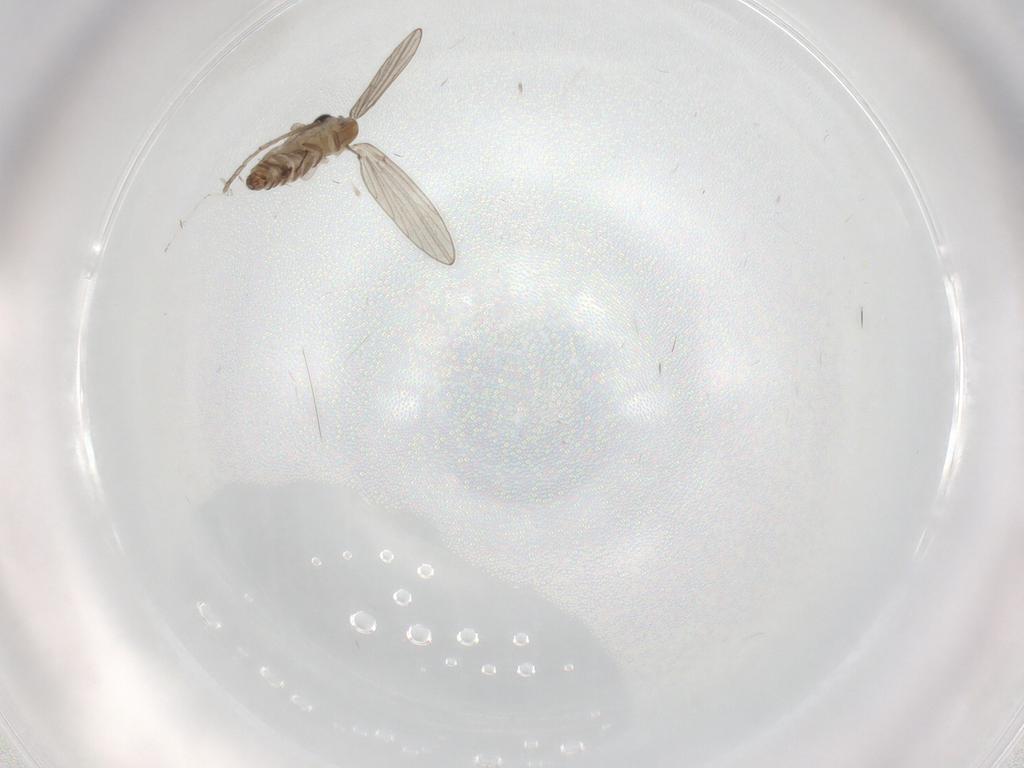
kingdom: Animalia
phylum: Arthropoda
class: Insecta
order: Diptera
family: Cecidomyiidae
